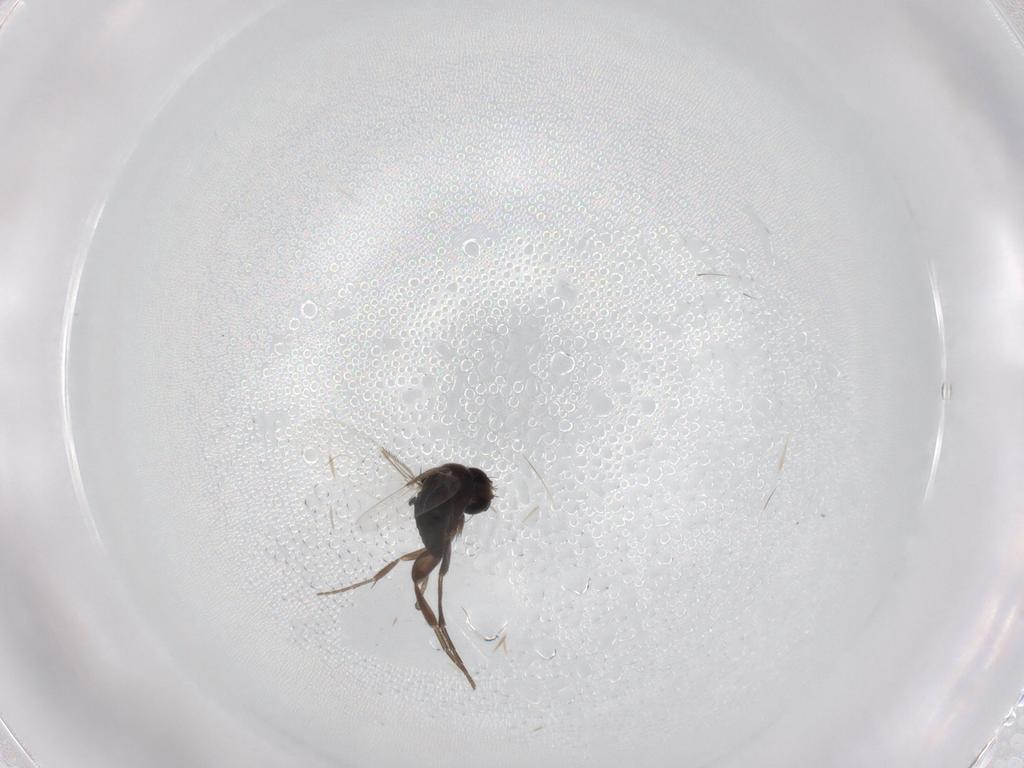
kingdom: Animalia
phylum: Arthropoda
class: Insecta
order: Diptera
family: Phoridae
